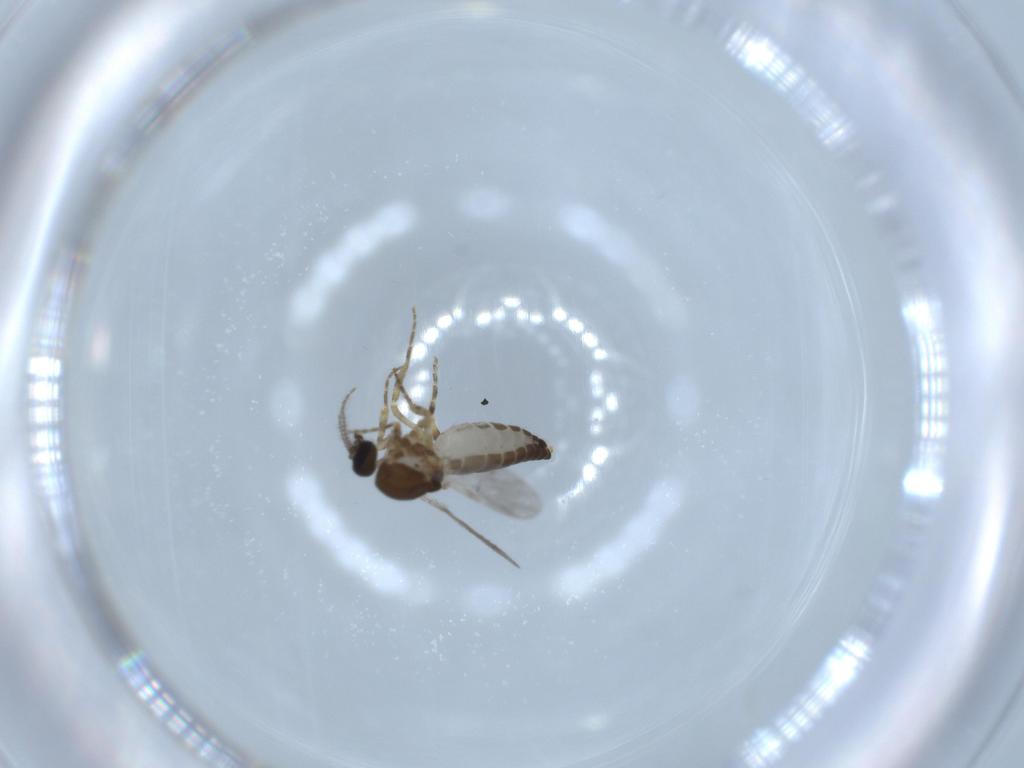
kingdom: Animalia
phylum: Arthropoda
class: Insecta
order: Diptera
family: Ceratopogonidae
